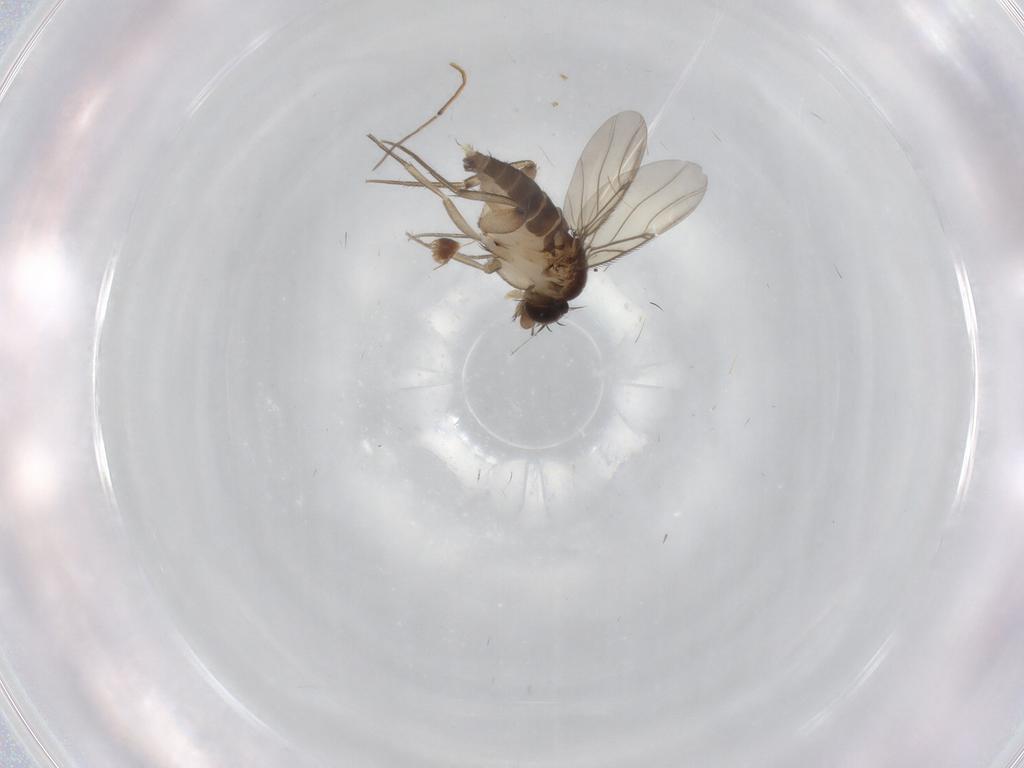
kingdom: Animalia
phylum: Arthropoda
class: Insecta
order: Diptera
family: Phoridae
